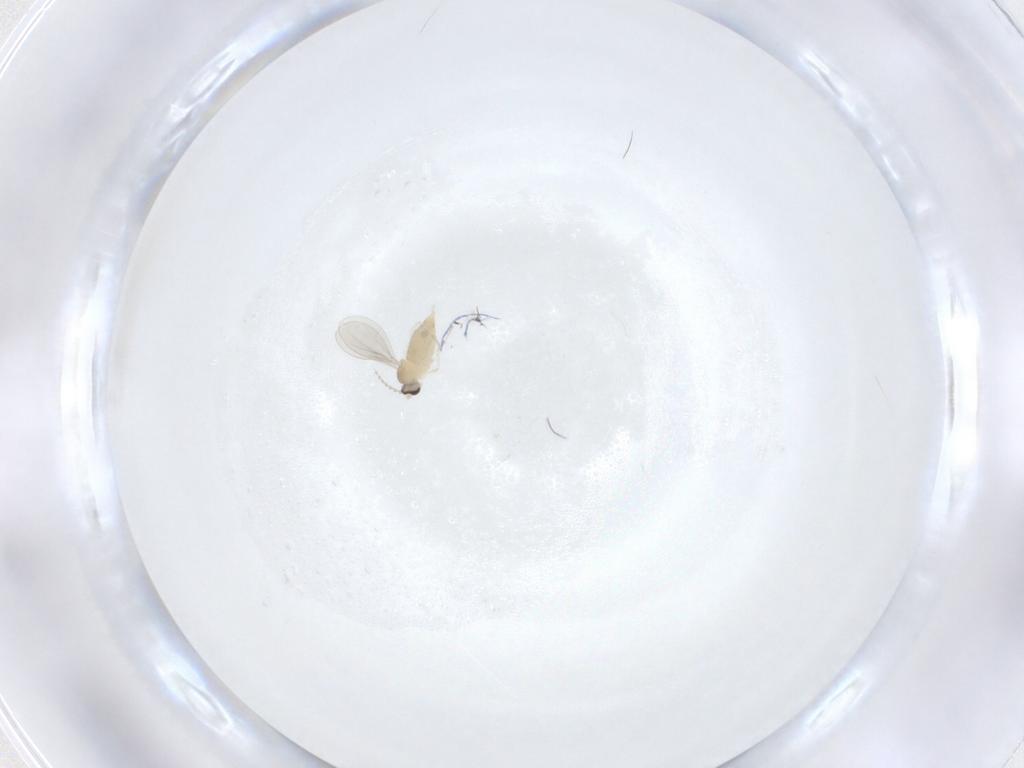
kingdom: Animalia
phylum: Arthropoda
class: Insecta
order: Diptera
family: Cecidomyiidae
